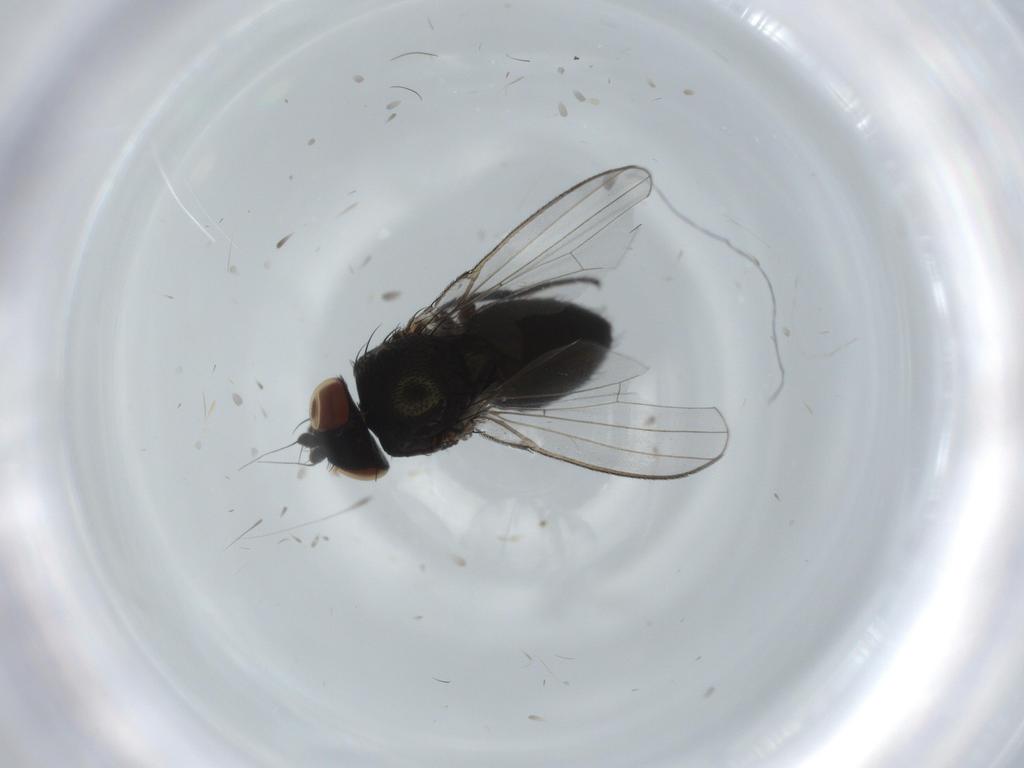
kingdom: Animalia
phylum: Arthropoda
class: Insecta
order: Diptera
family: Milichiidae
